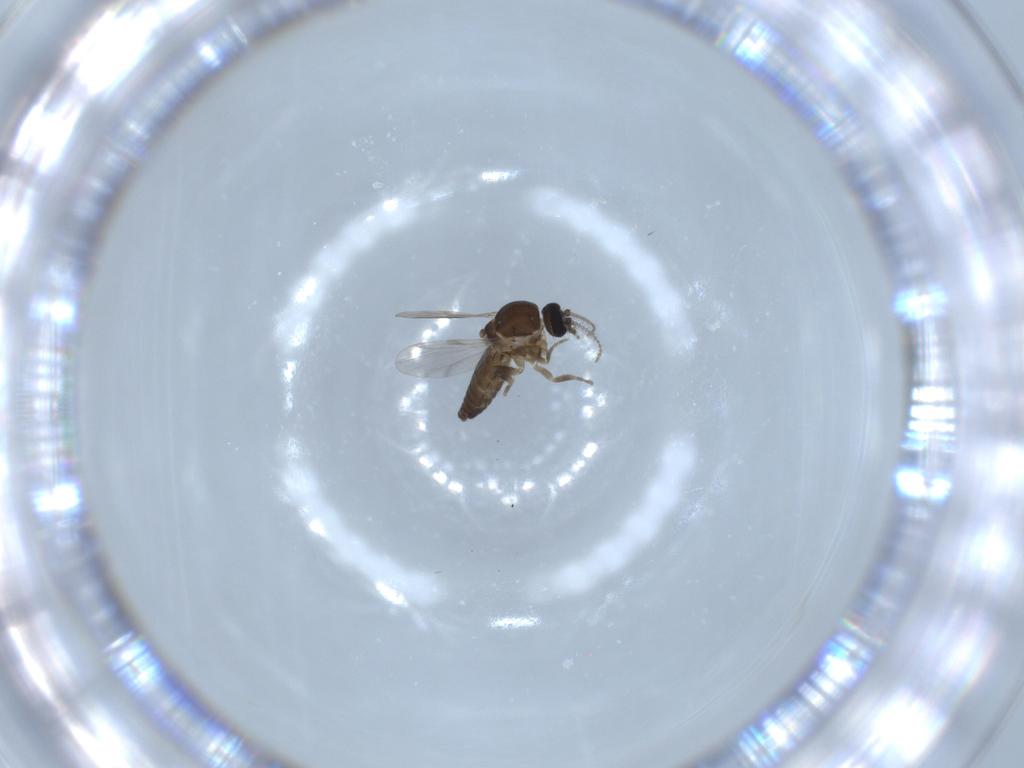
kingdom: Animalia
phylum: Arthropoda
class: Insecta
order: Diptera
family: Ceratopogonidae
